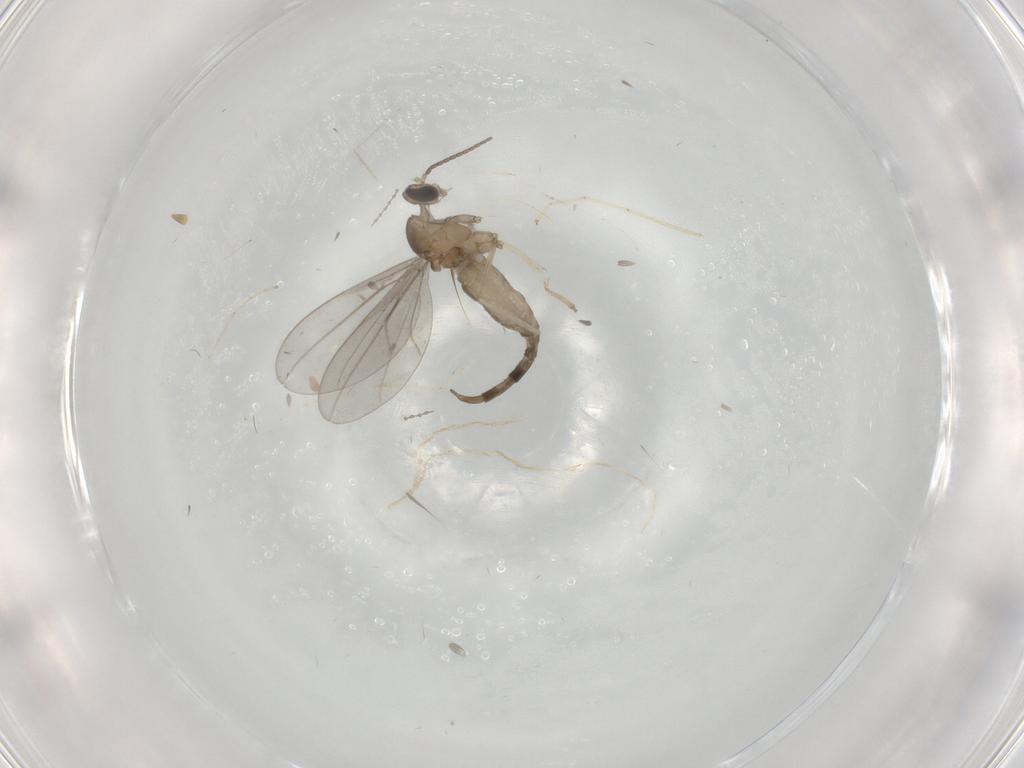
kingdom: Animalia
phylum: Arthropoda
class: Insecta
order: Diptera
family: Cecidomyiidae
